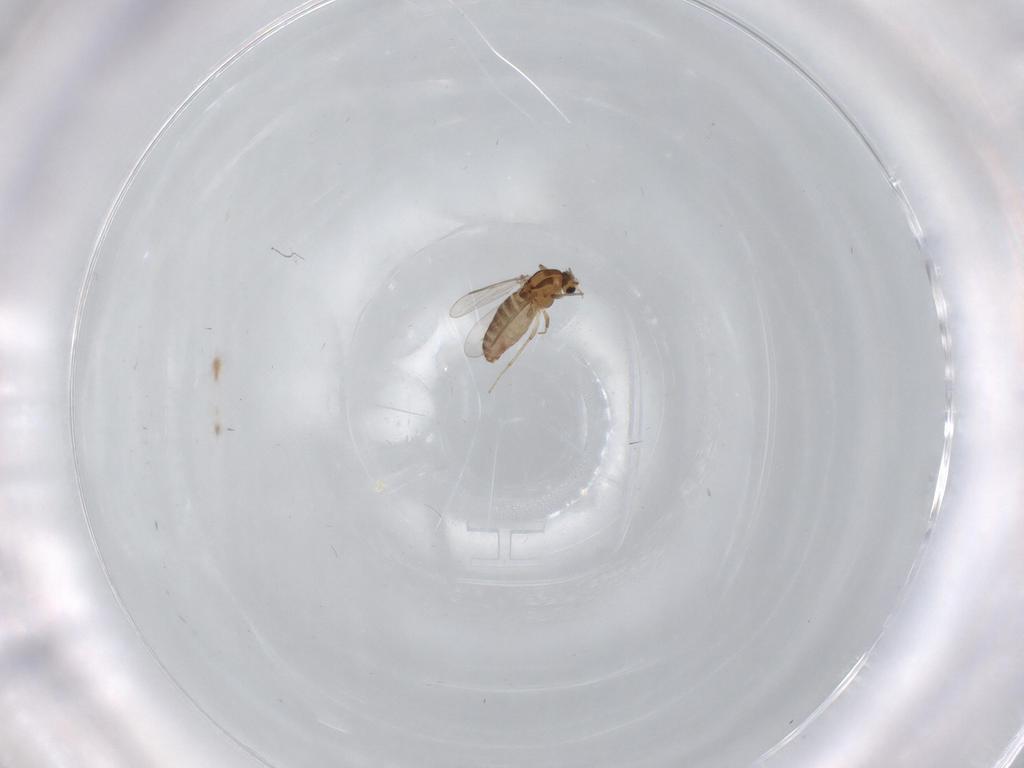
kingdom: Animalia
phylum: Arthropoda
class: Insecta
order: Diptera
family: Chironomidae
